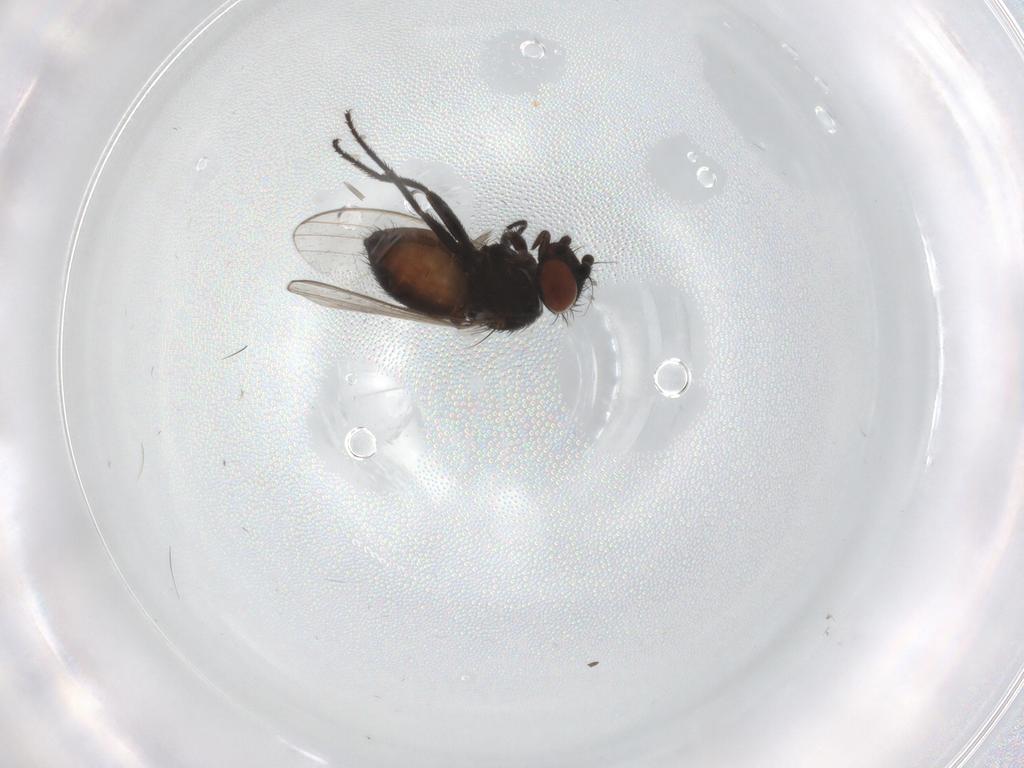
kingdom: Animalia
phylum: Arthropoda
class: Insecta
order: Diptera
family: Milichiidae
